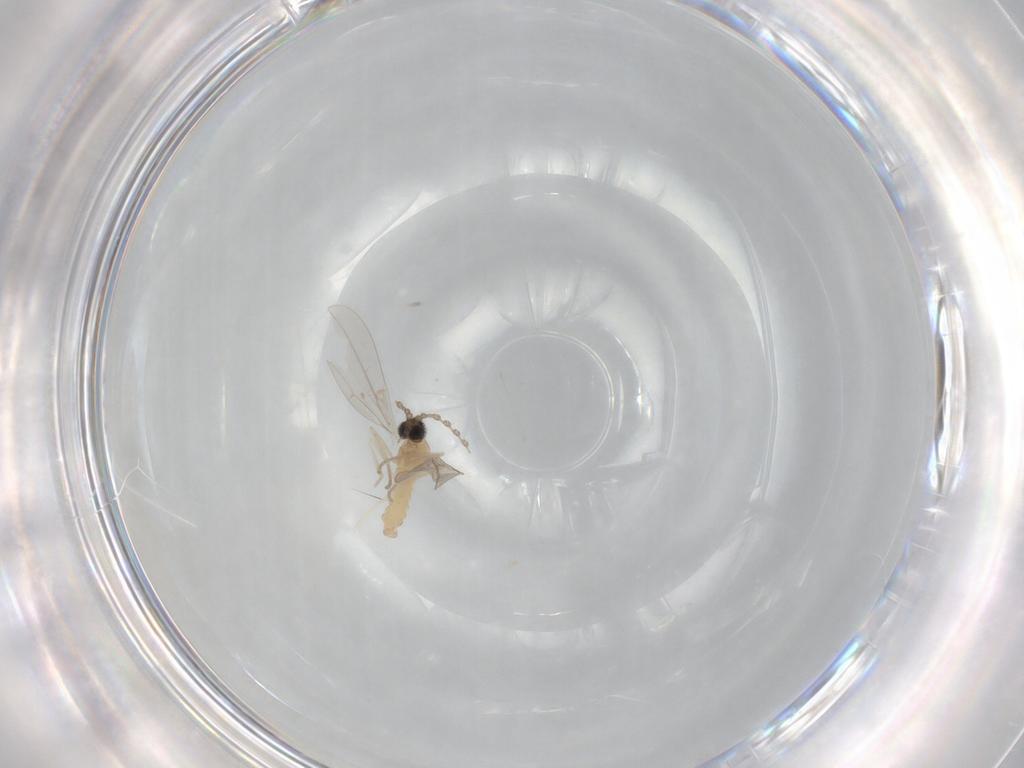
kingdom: Animalia
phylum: Arthropoda
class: Insecta
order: Diptera
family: Cecidomyiidae
